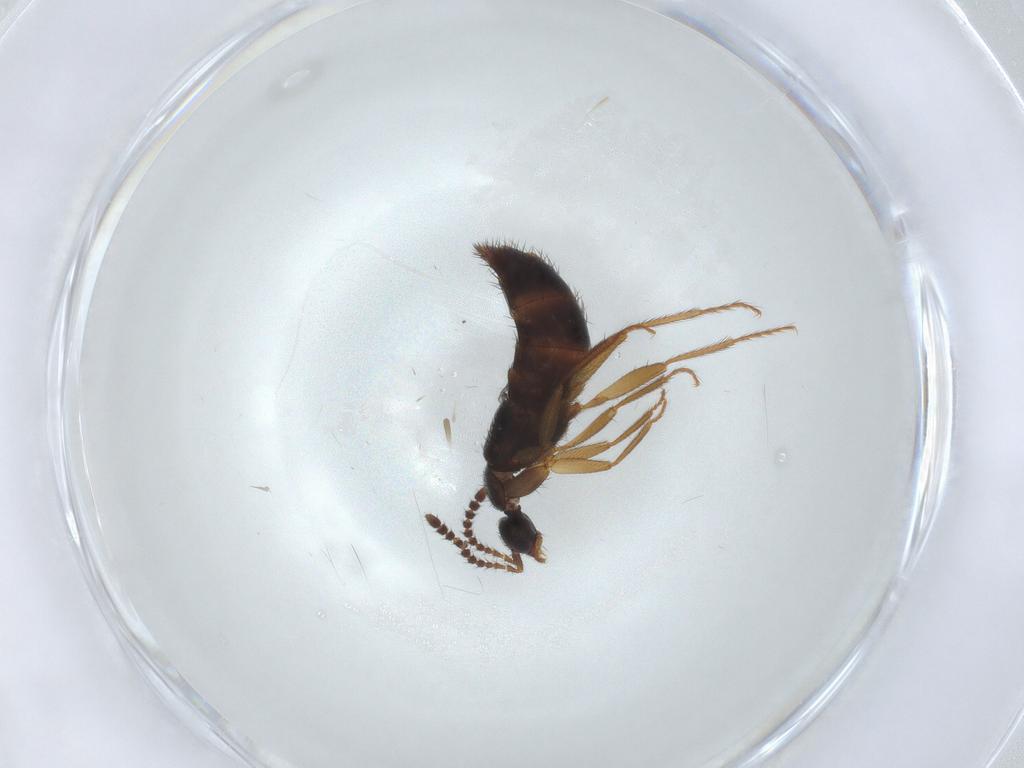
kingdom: Animalia
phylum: Arthropoda
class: Insecta
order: Coleoptera
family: Staphylinidae
